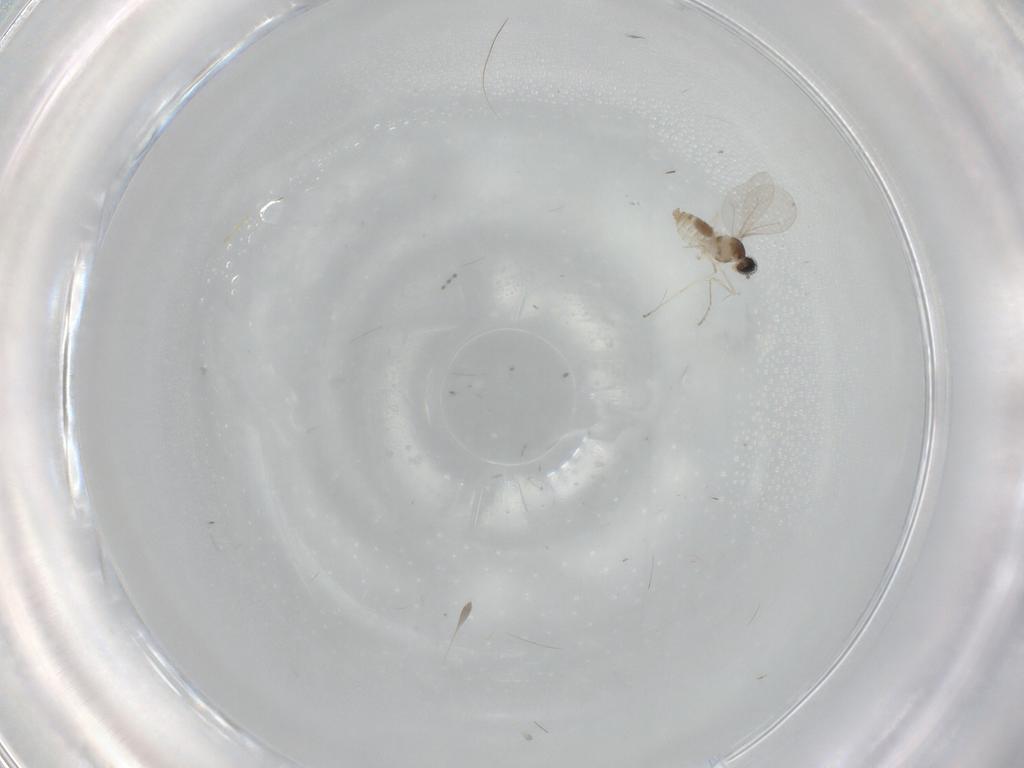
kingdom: Animalia
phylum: Arthropoda
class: Insecta
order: Diptera
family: Cecidomyiidae
